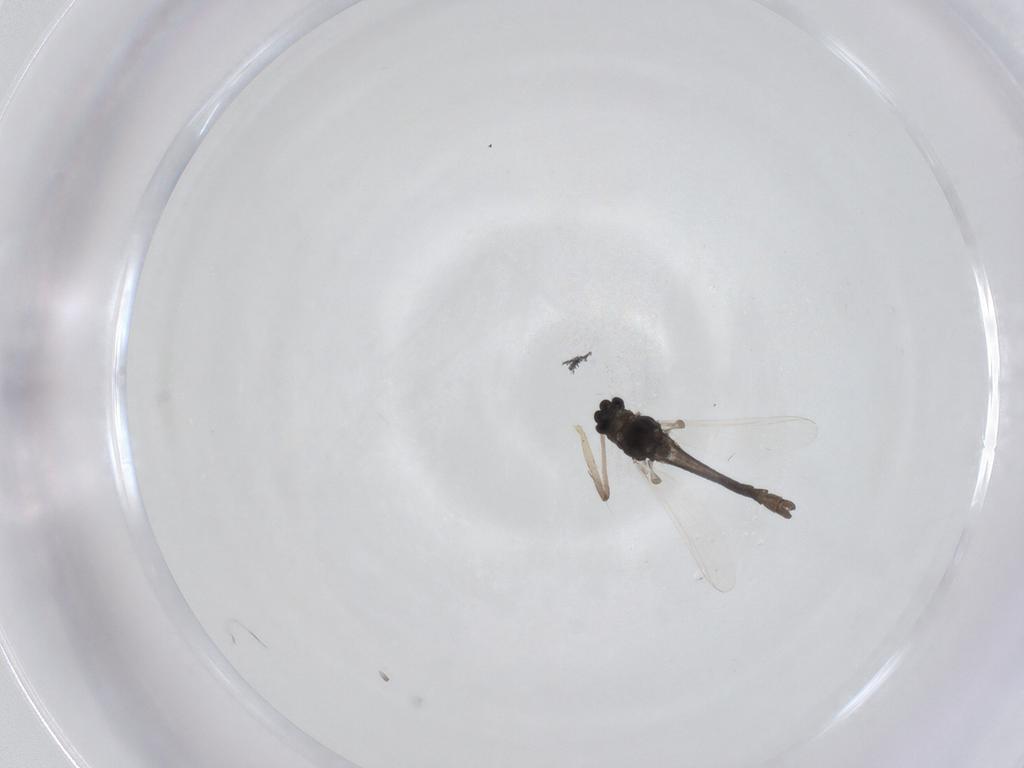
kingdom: Animalia
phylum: Arthropoda
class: Insecta
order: Diptera
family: Chironomidae
